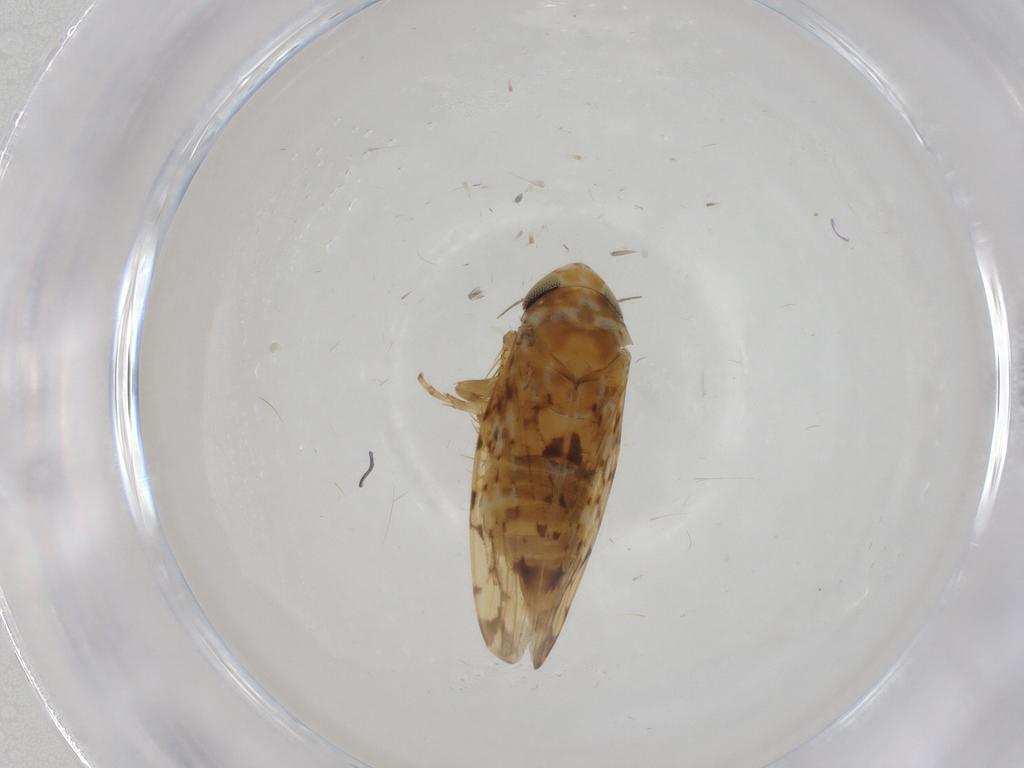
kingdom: Animalia
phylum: Arthropoda
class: Insecta
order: Hemiptera
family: Cicadellidae
